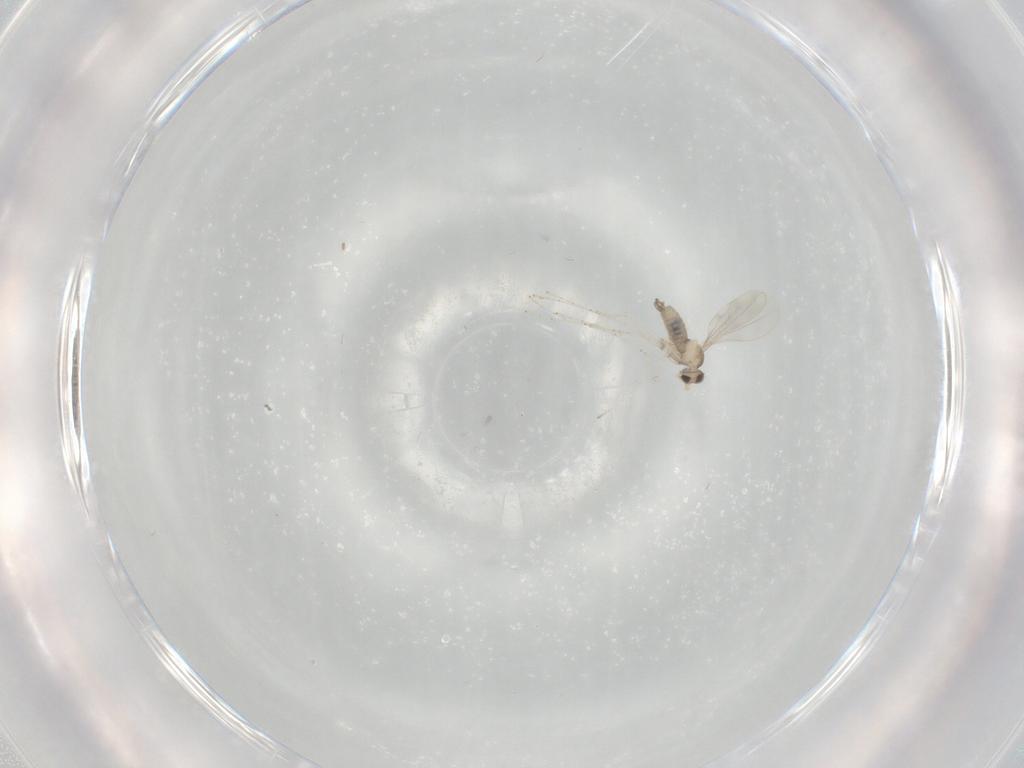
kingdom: Animalia
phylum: Arthropoda
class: Insecta
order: Diptera
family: Cecidomyiidae
